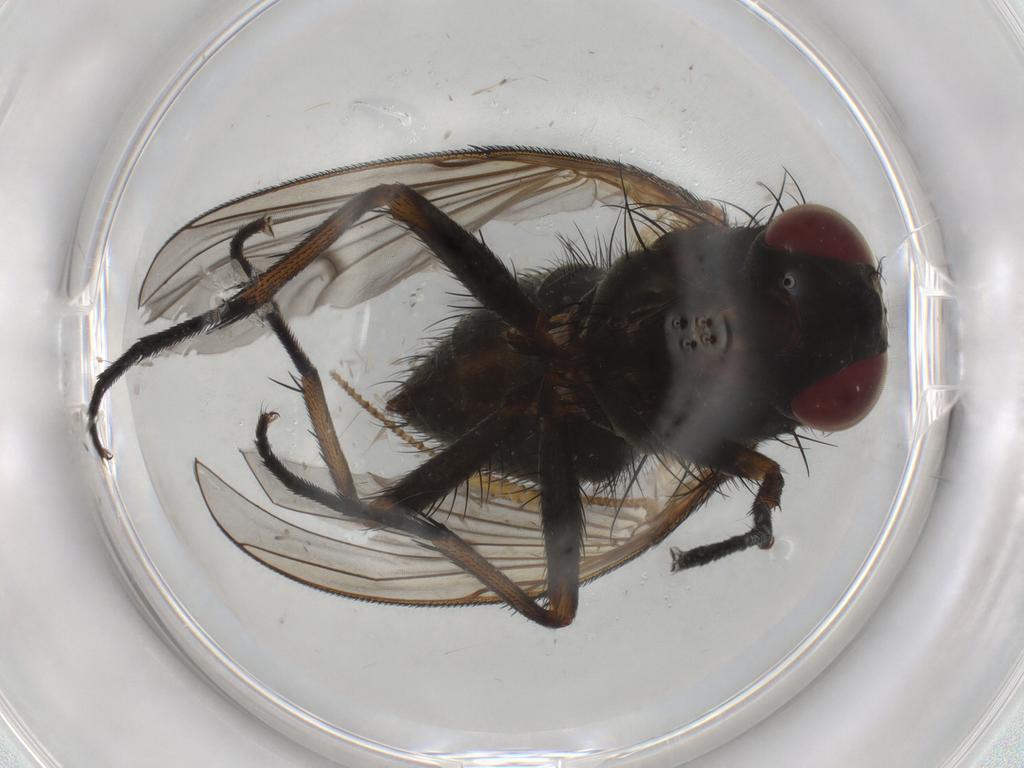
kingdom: Animalia
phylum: Arthropoda
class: Insecta
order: Diptera
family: Muscidae
